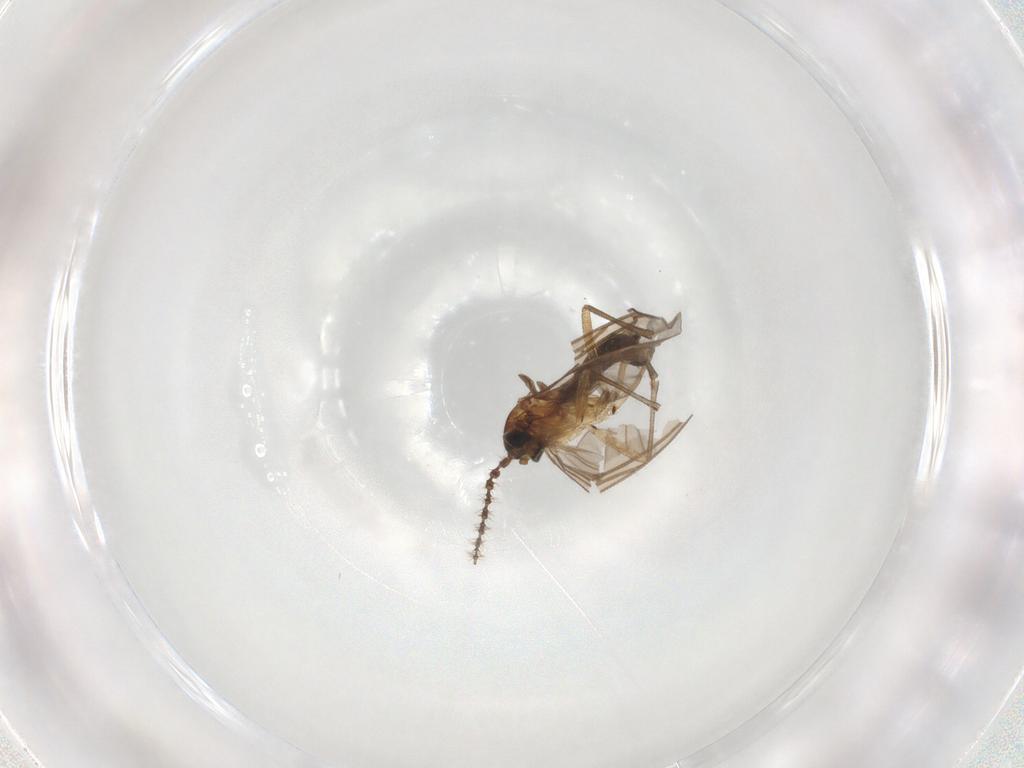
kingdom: Animalia
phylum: Arthropoda
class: Insecta
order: Diptera
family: Sciaridae
